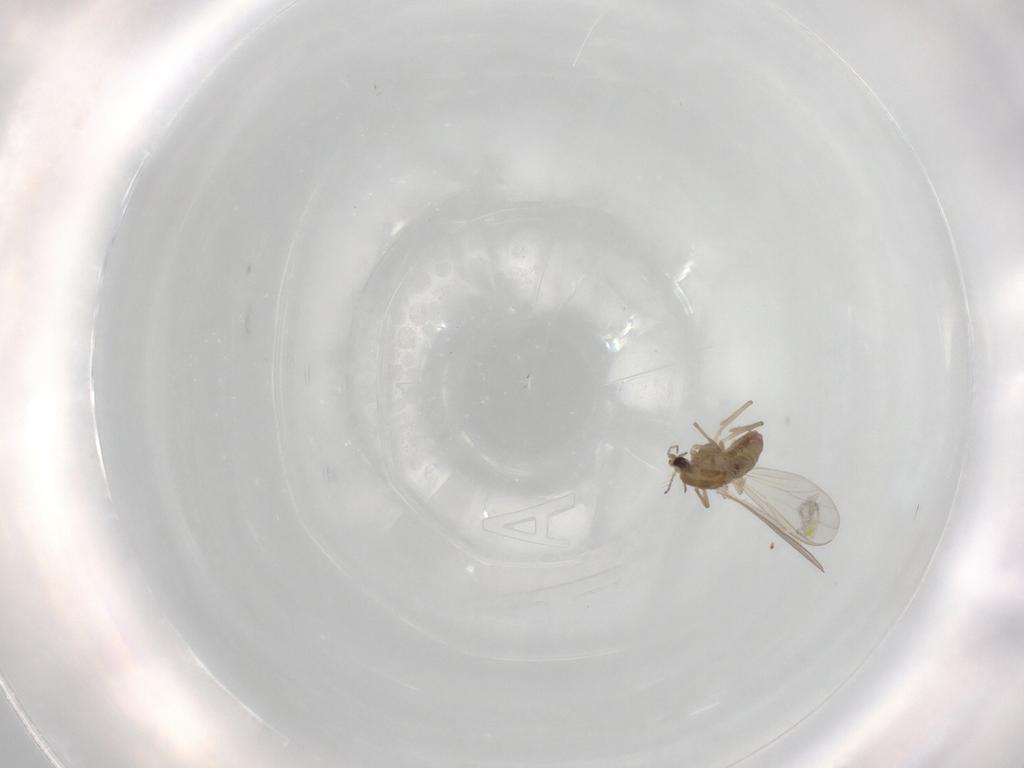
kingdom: Animalia
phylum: Arthropoda
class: Insecta
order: Diptera
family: Chironomidae
